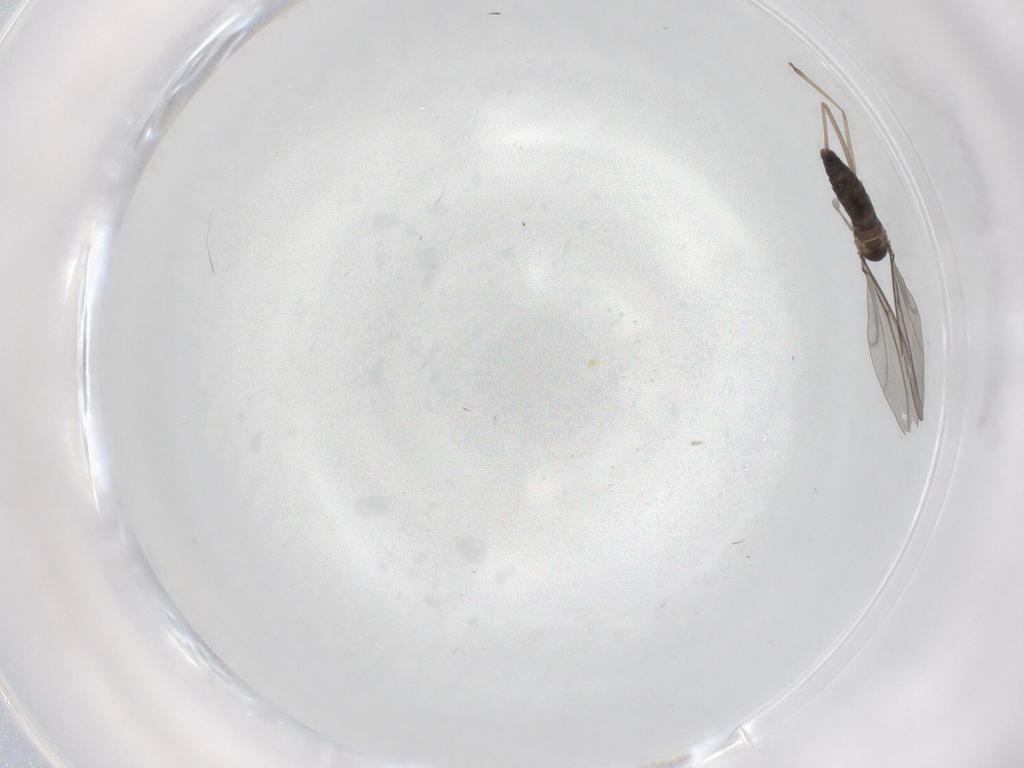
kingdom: Animalia
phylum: Arthropoda
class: Insecta
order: Diptera
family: Chironomidae
